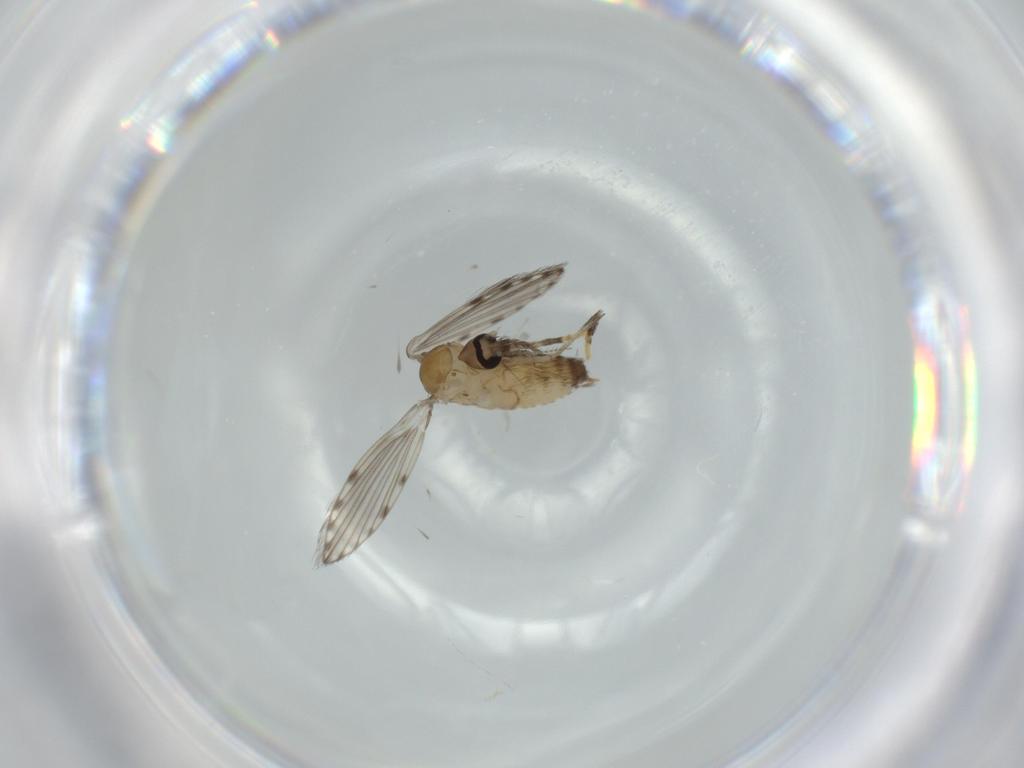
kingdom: Animalia
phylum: Arthropoda
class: Insecta
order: Diptera
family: Psychodidae
